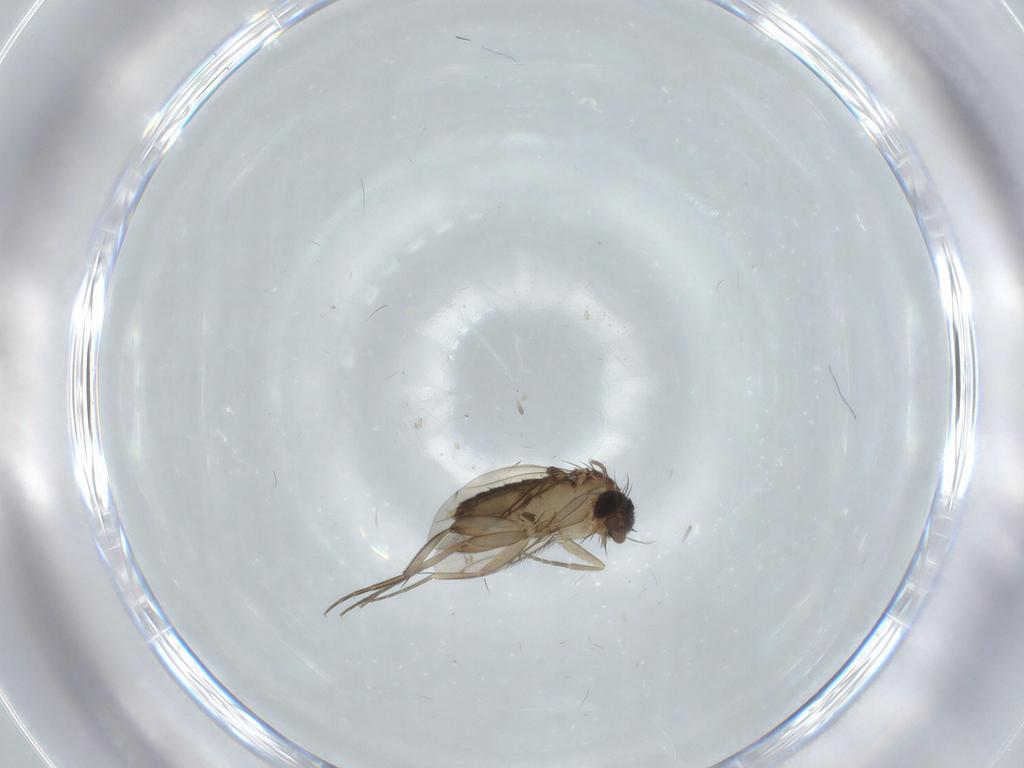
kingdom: Animalia
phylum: Arthropoda
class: Insecta
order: Diptera
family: Phoridae
